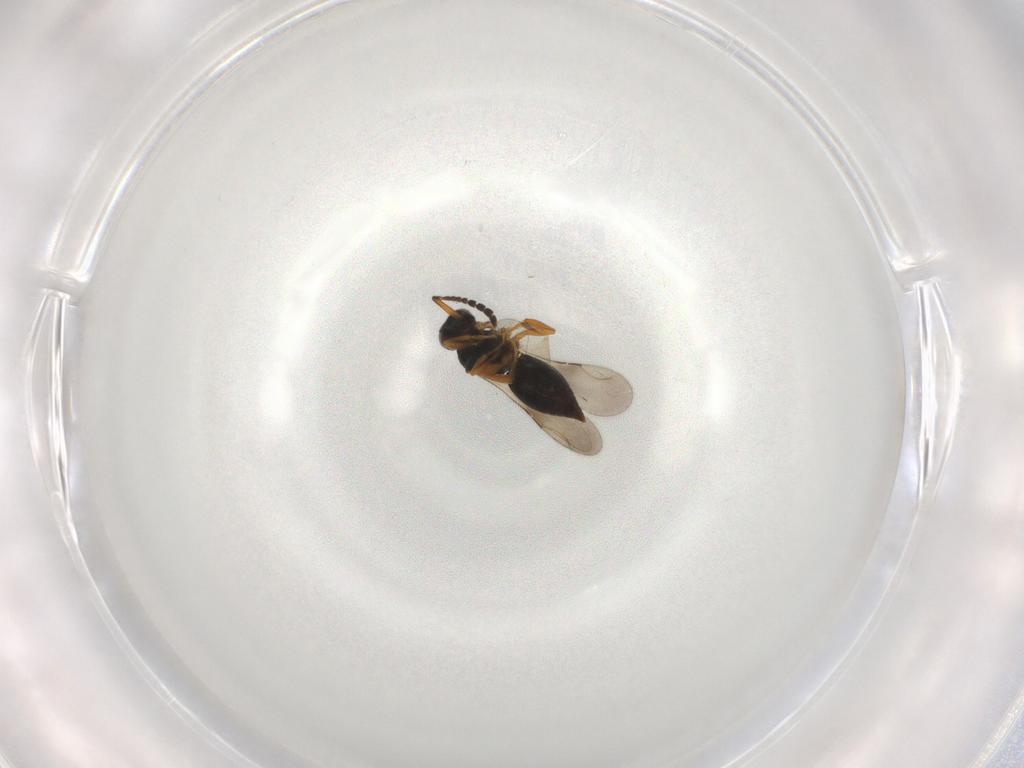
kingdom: Animalia
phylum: Arthropoda
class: Insecta
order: Hymenoptera
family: Ceraphronidae
